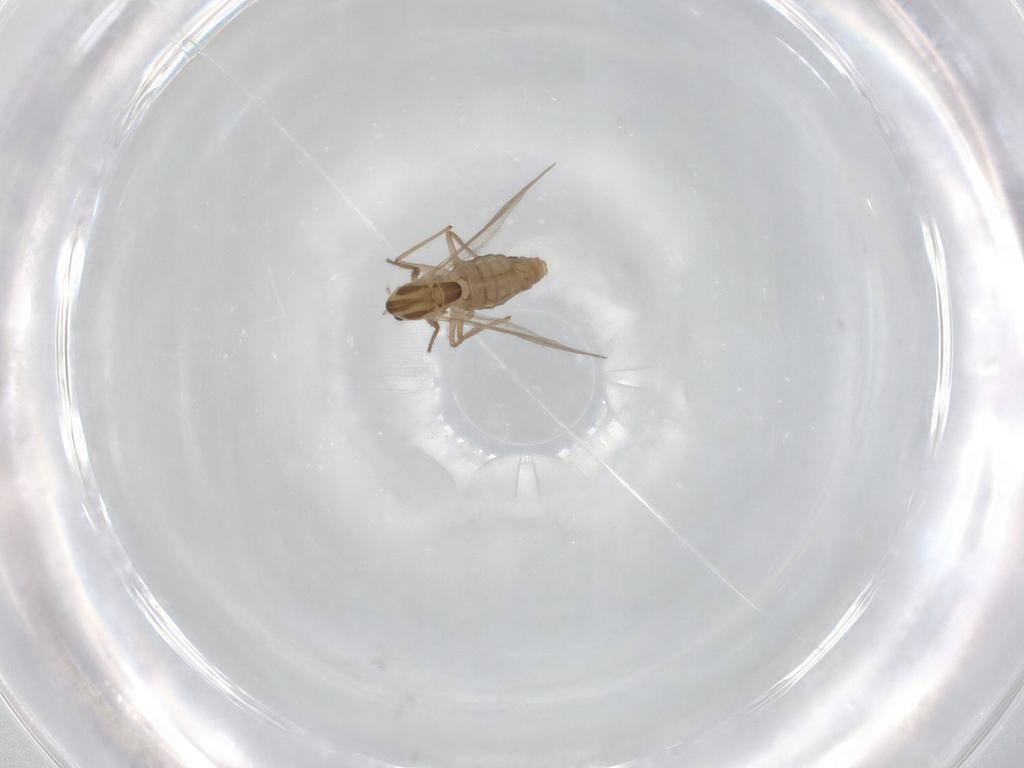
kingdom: Animalia
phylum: Arthropoda
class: Insecta
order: Diptera
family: Chironomidae
